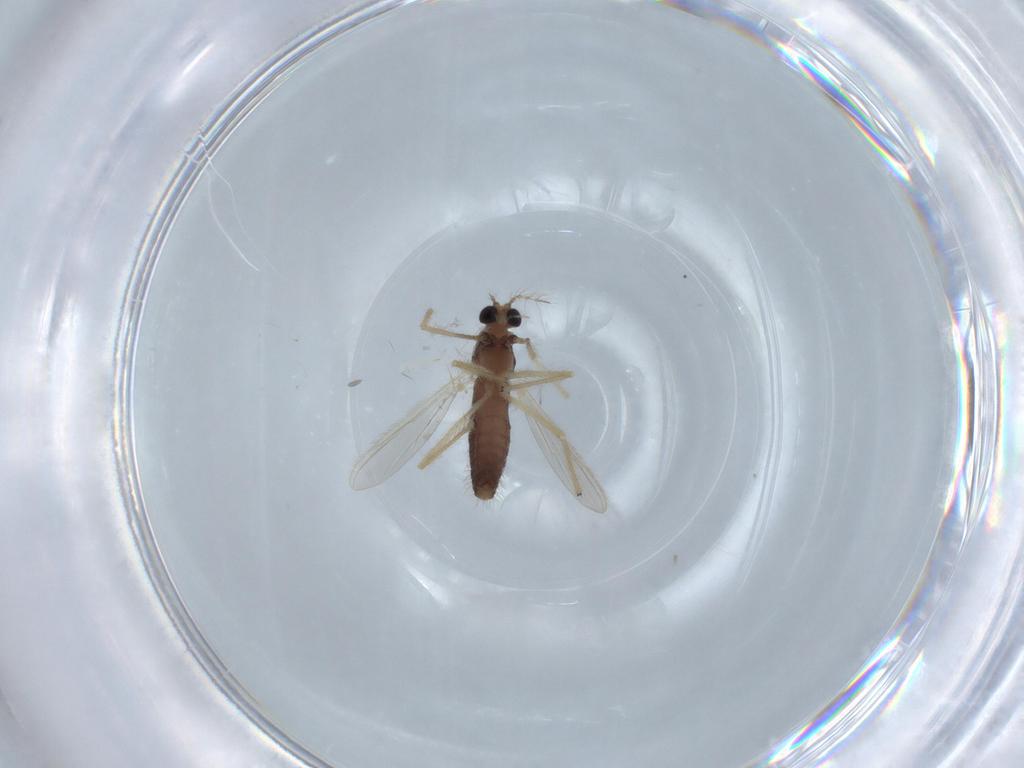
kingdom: Animalia
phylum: Arthropoda
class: Insecta
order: Diptera
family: Chironomidae
